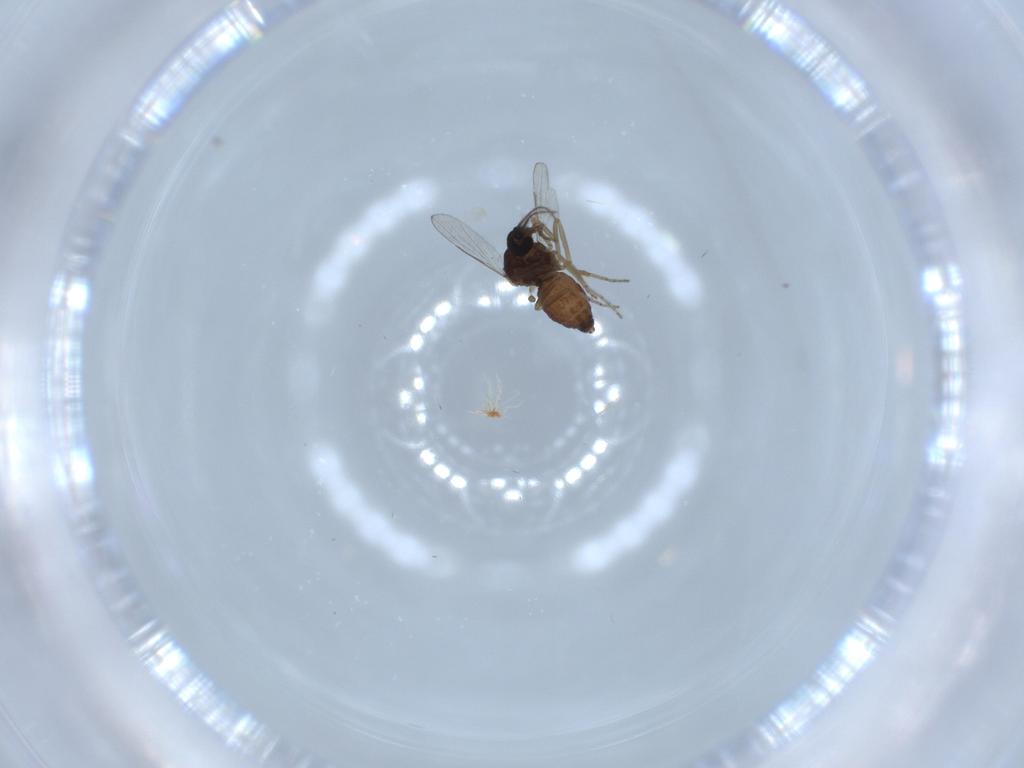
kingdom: Animalia
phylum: Arthropoda
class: Insecta
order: Diptera
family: Ceratopogonidae
